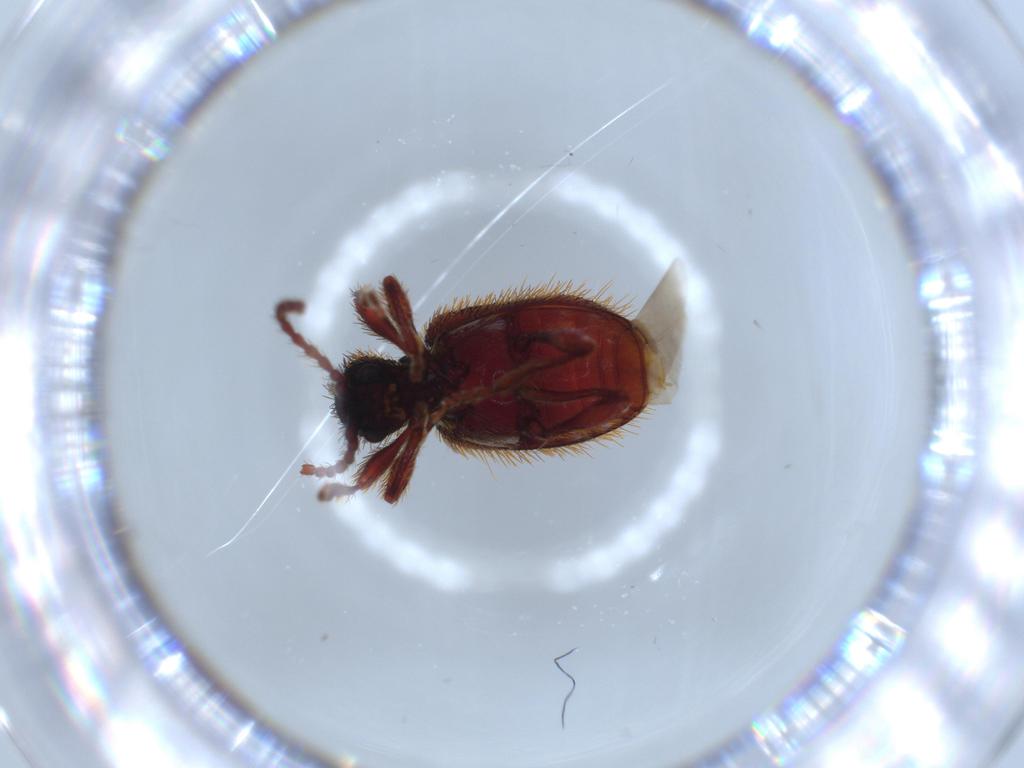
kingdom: Animalia
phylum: Arthropoda
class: Insecta
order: Coleoptera
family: Ptinidae
